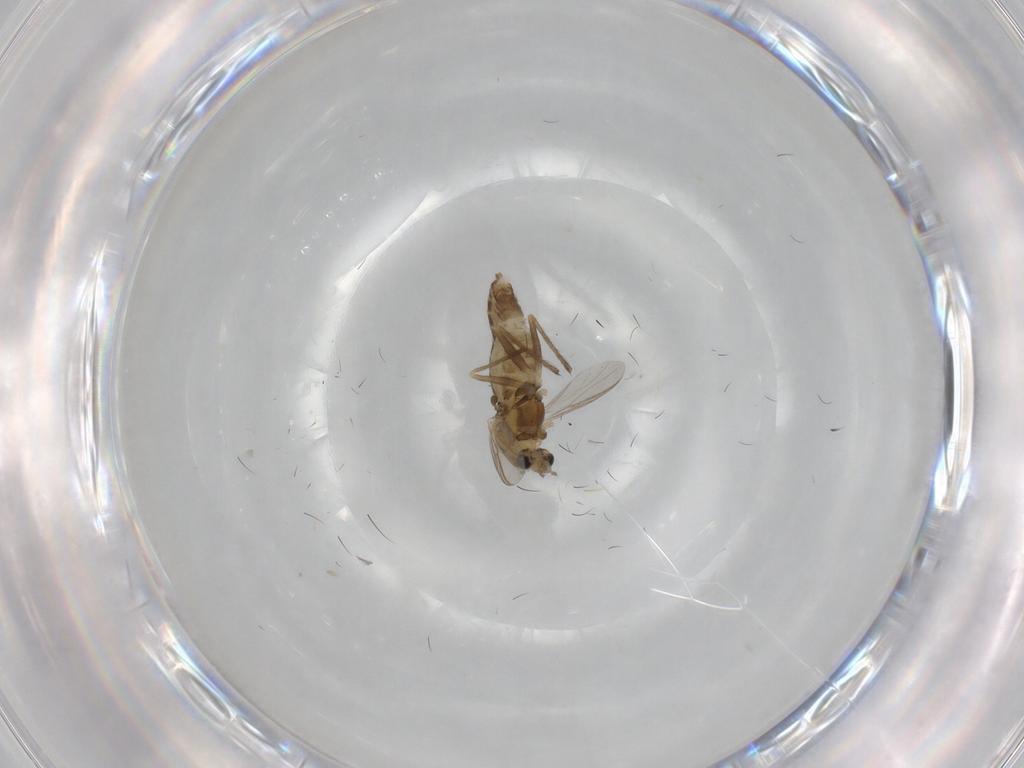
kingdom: Animalia
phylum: Arthropoda
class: Insecta
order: Diptera
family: Chironomidae
